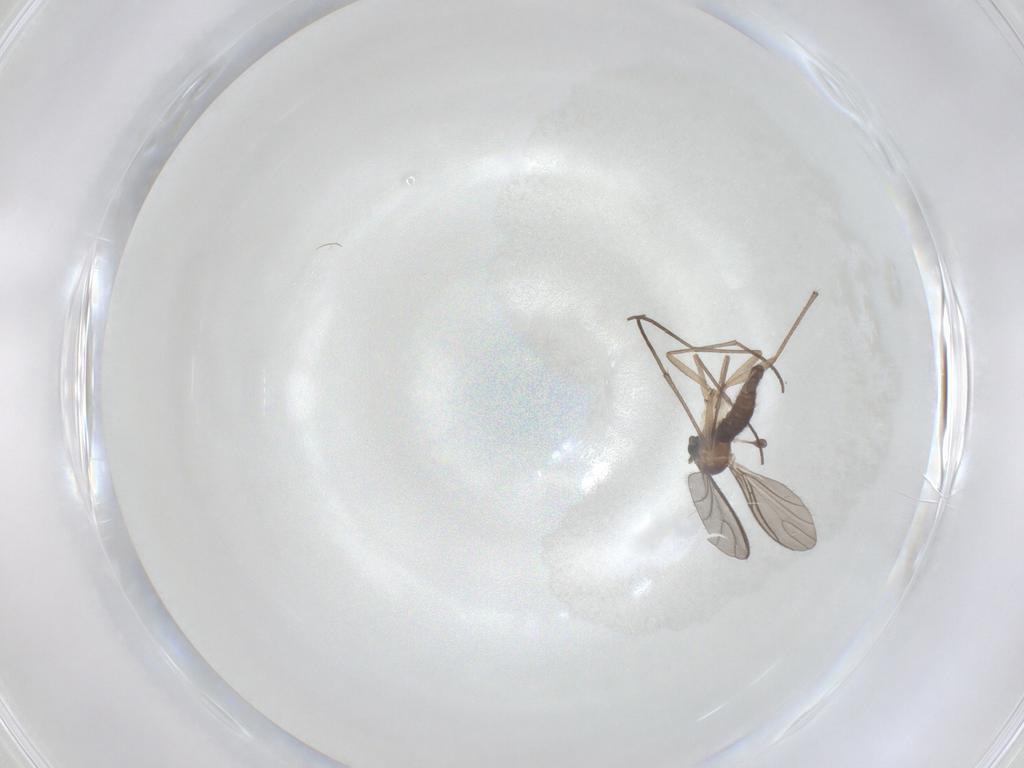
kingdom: Animalia
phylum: Arthropoda
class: Insecta
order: Diptera
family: Sciaridae
